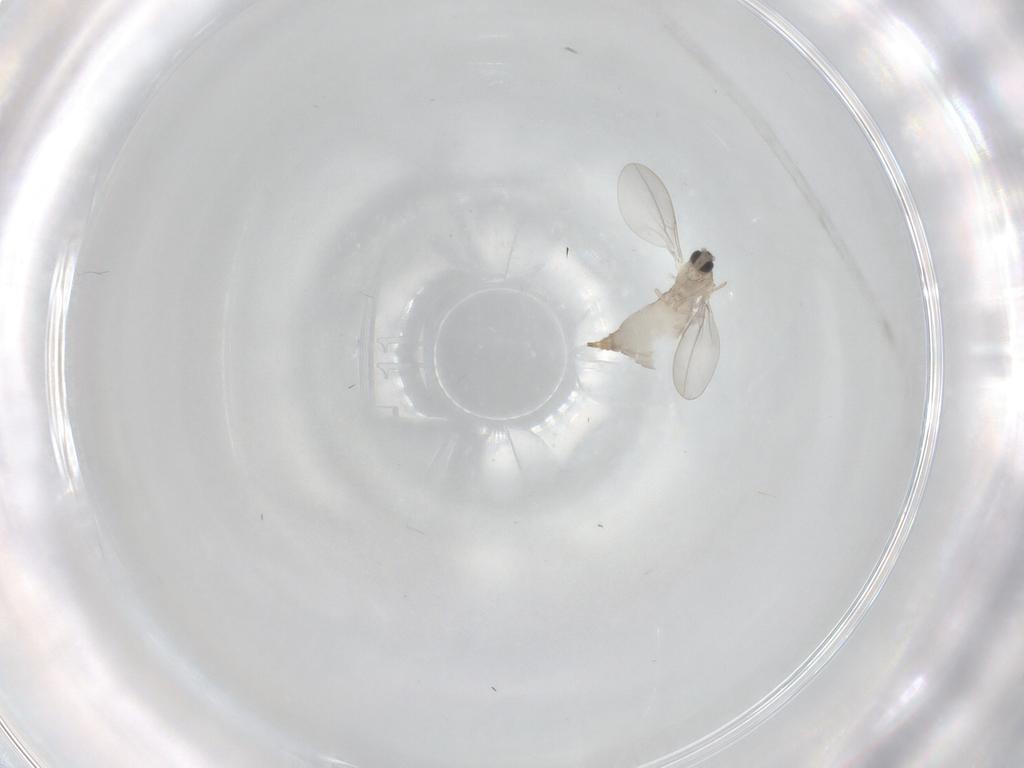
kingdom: Animalia
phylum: Arthropoda
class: Insecta
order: Diptera
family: Cecidomyiidae
